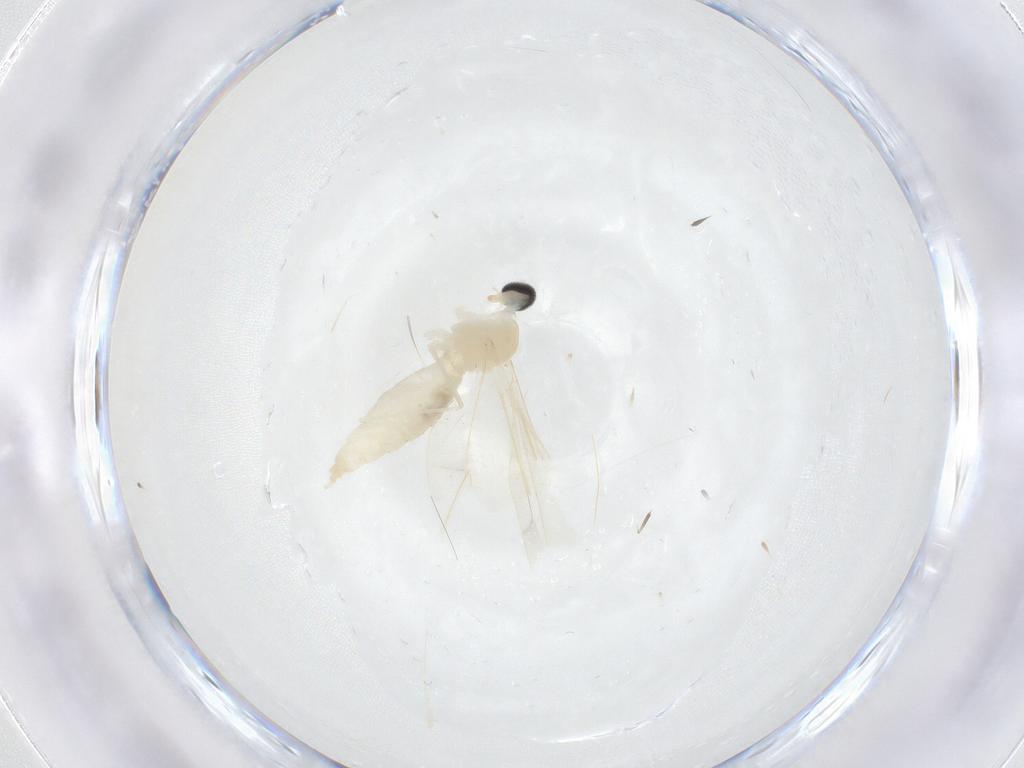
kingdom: Animalia
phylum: Arthropoda
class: Insecta
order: Diptera
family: Cecidomyiidae
